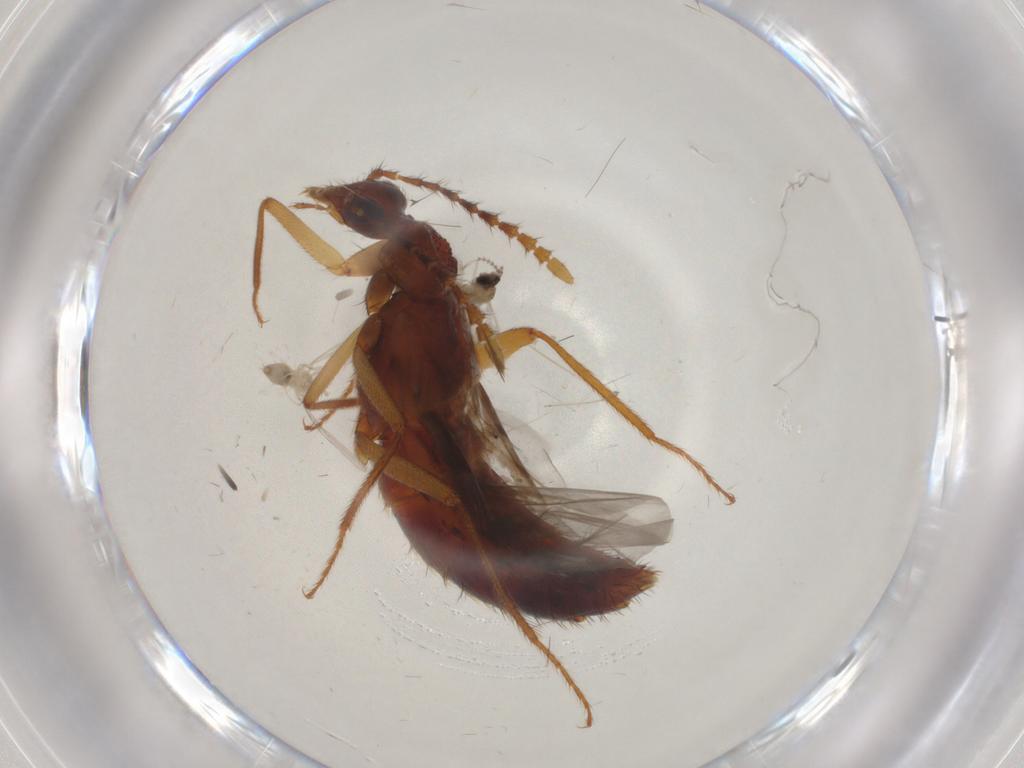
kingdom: Animalia
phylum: Arthropoda
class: Insecta
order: Coleoptera
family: Staphylinidae
